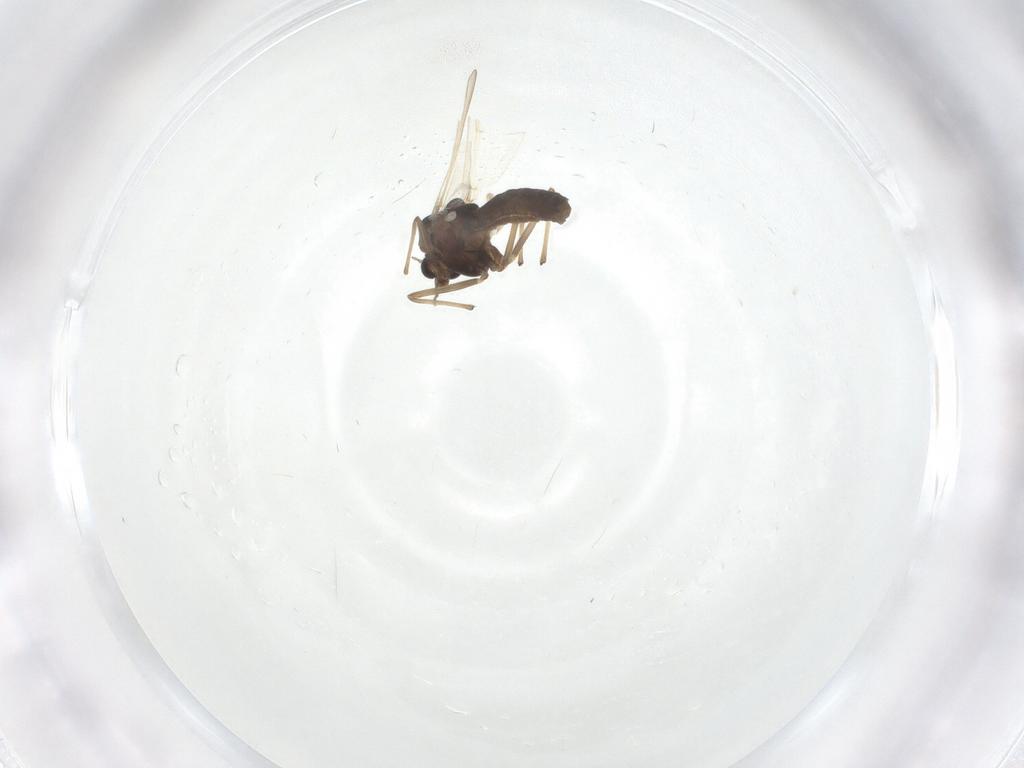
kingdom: Animalia
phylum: Arthropoda
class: Insecta
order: Diptera
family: Chironomidae
